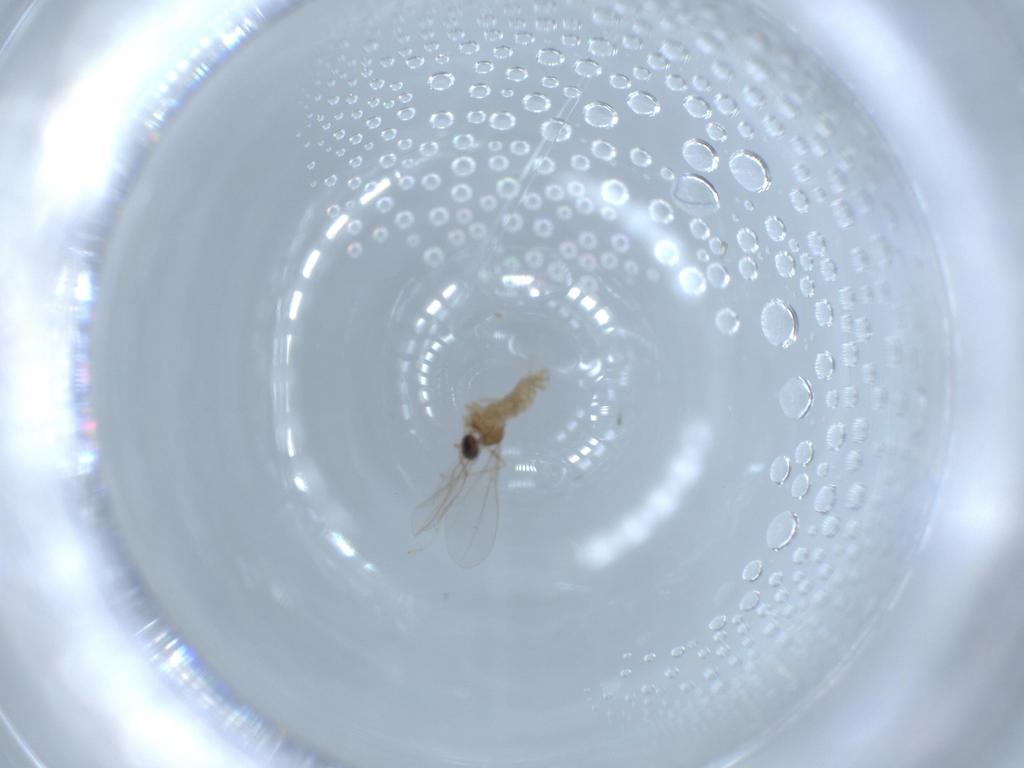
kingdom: Animalia
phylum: Arthropoda
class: Insecta
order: Diptera
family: Cecidomyiidae
